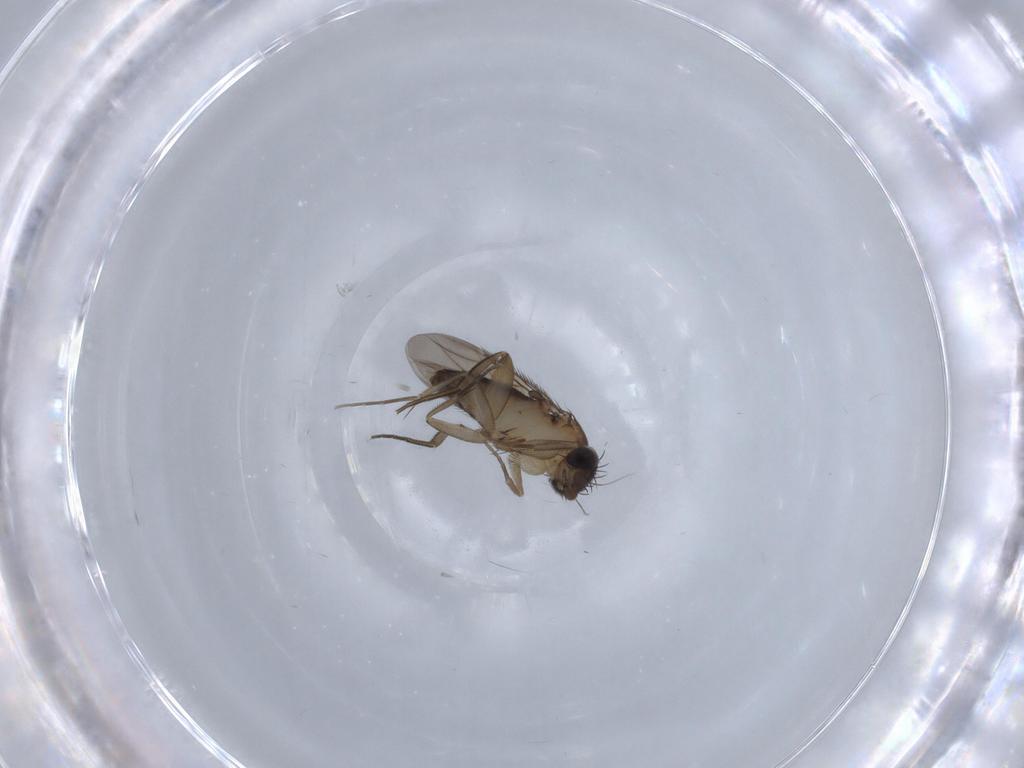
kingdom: Animalia
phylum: Arthropoda
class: Insecta
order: Diptera
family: Phoridae
